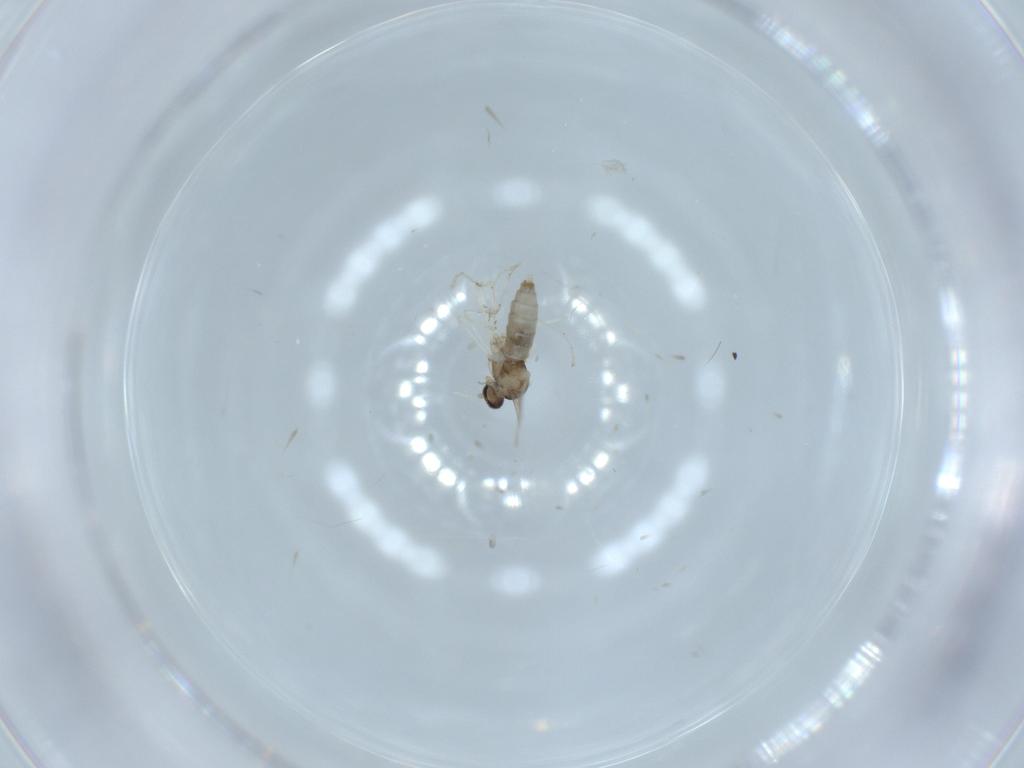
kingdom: Animalia
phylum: Arthropoda
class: Insecta
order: Diptera
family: Cecidomyiidae
